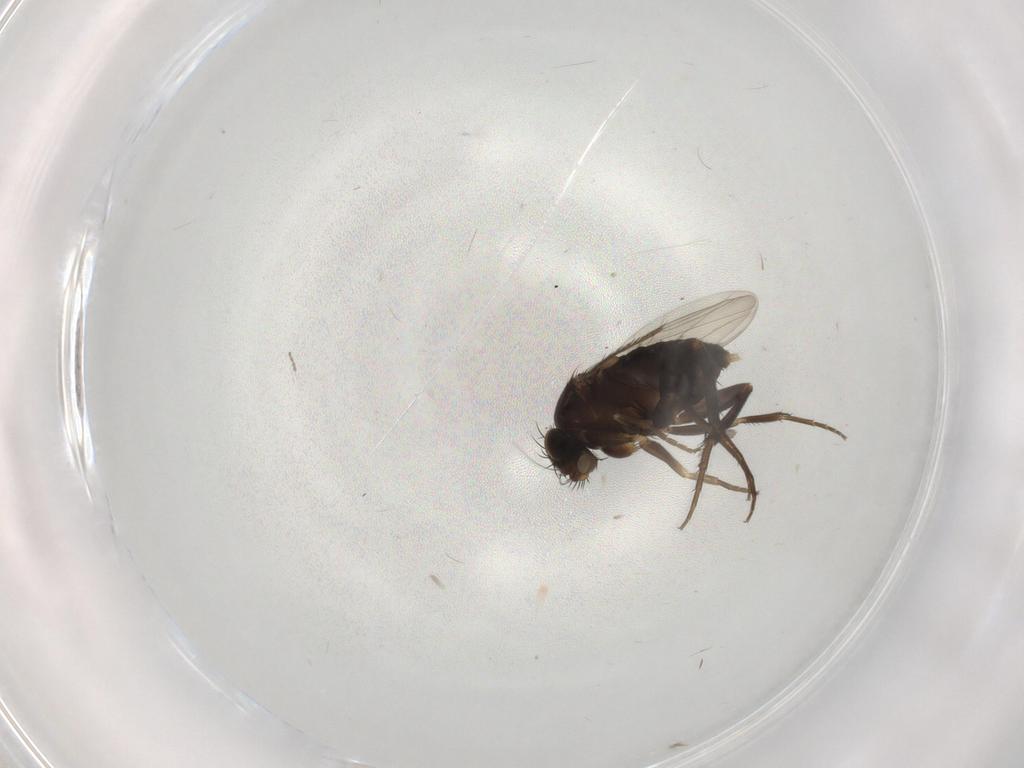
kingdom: Animalia
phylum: Arthropoda
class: Insecta
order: Diptera
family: Phoridae
